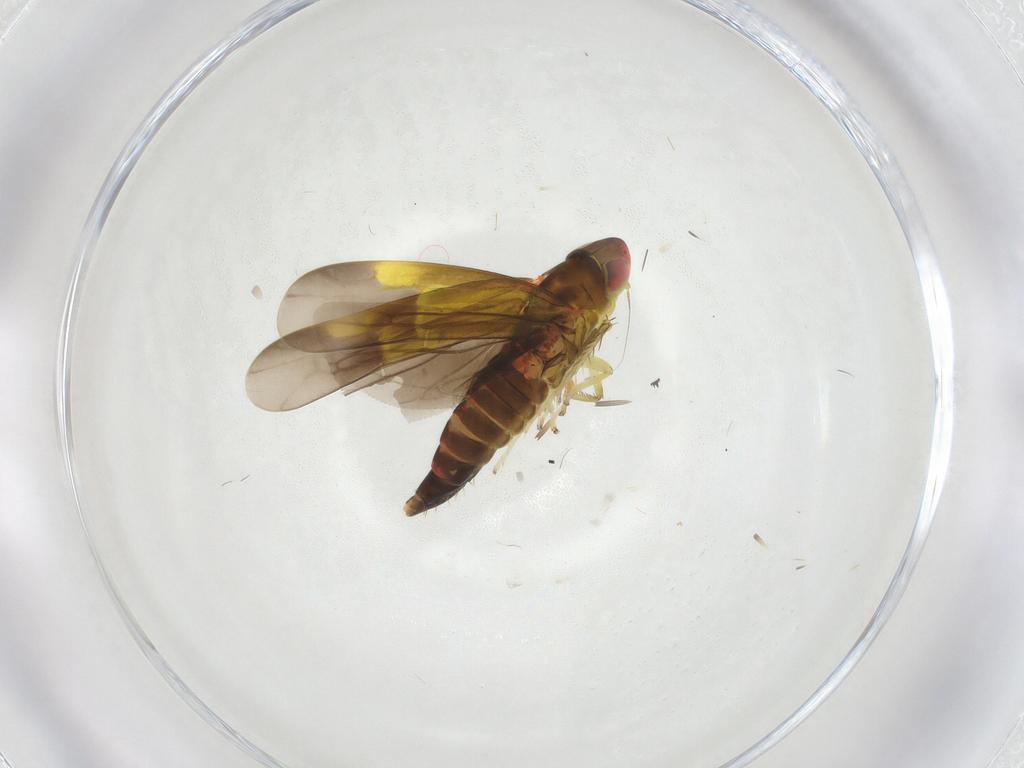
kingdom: Animalia
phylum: Arthropoda
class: Insecta
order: Hemiptera
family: Cicadellidae
